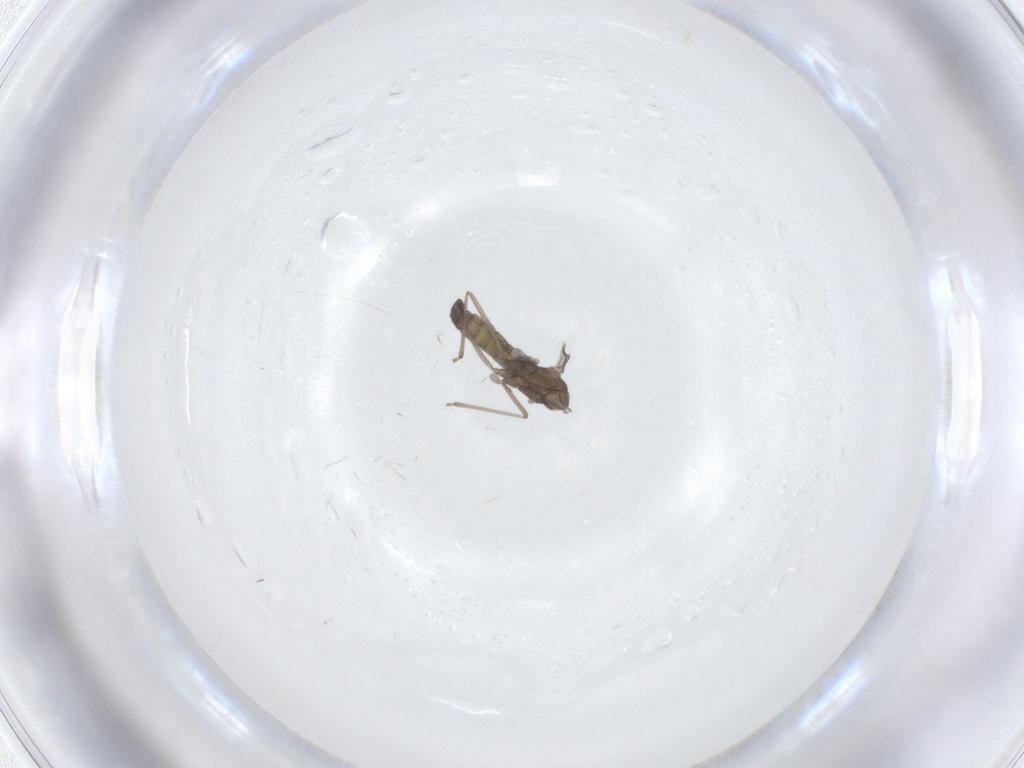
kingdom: Animalia
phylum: Arthropoda
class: Insecta
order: Diptera
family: Cecidomyiidae
